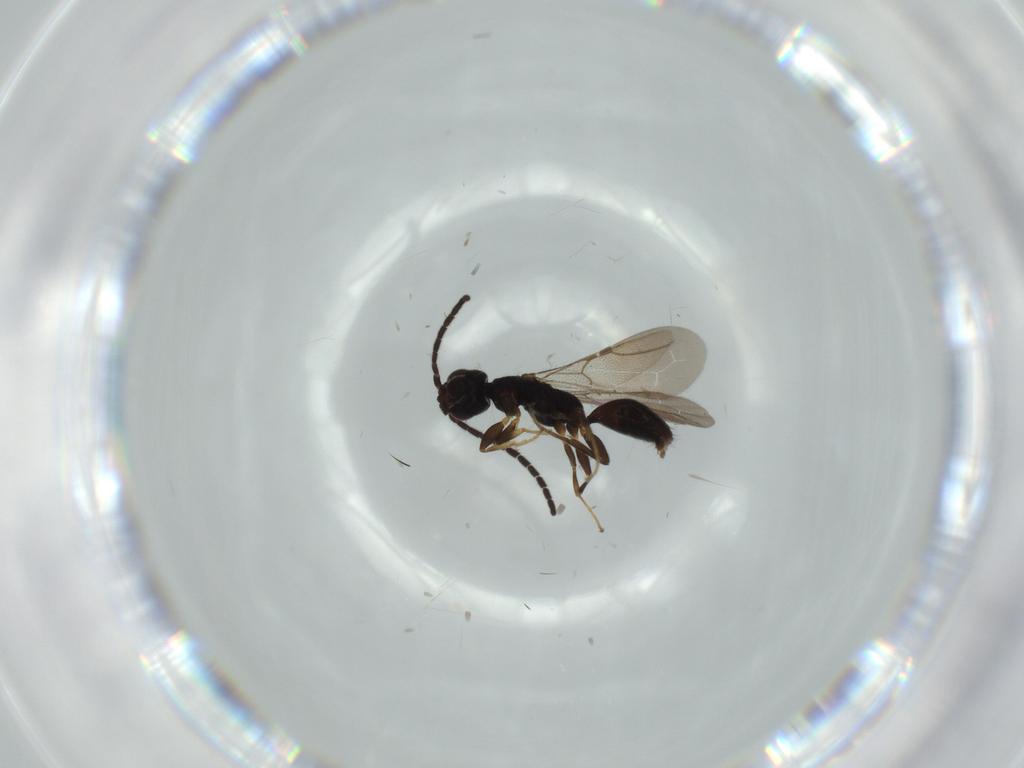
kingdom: Animalia
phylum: Arthropoda
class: Insecta
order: Hymenoptera
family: Bethylidae
